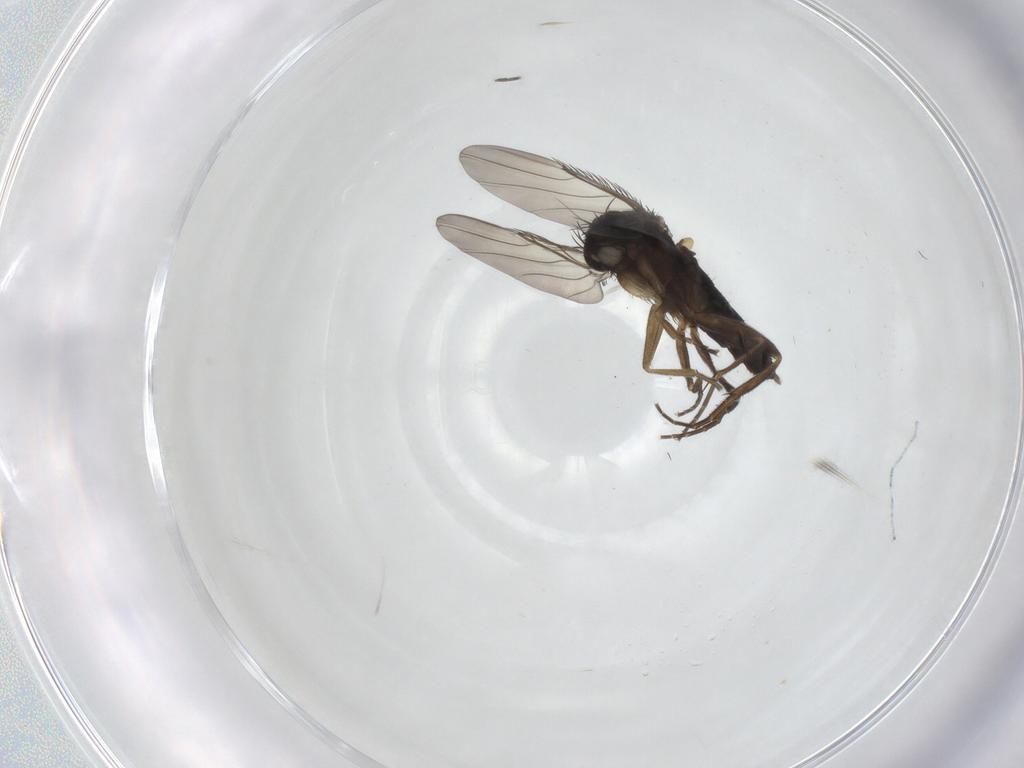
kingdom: Animalia
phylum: Arthropoda
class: Insecta
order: Diptera
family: Phoridae
